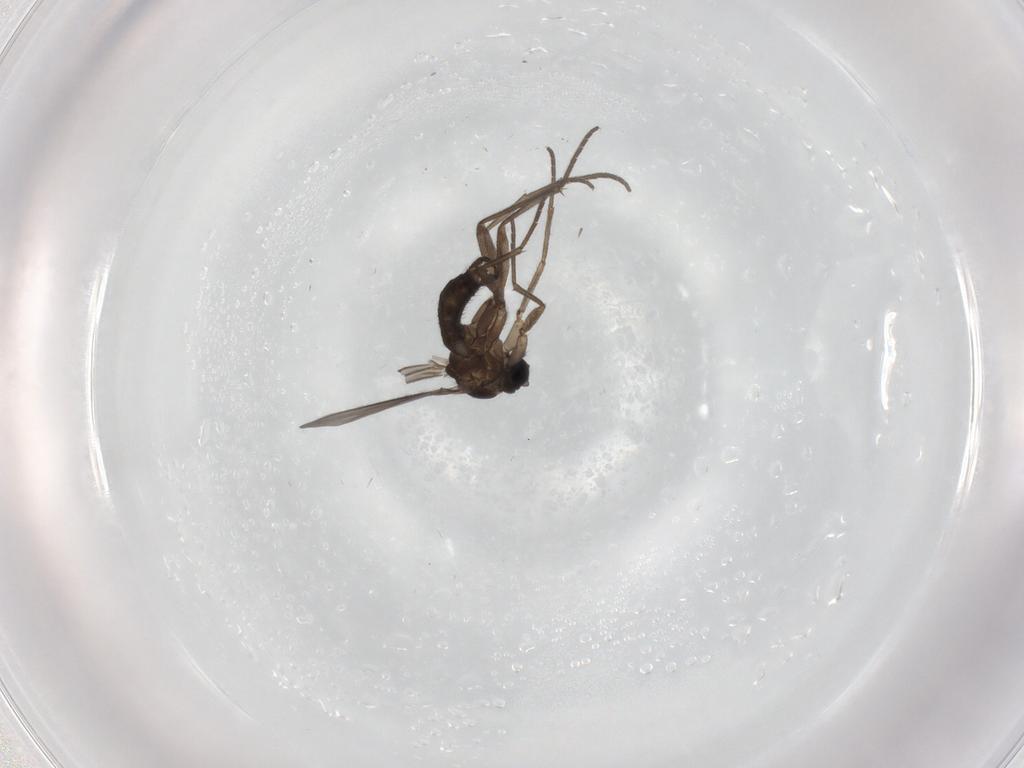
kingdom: Animalia
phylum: Arthropoda
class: Insecta
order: Diptera
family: Sciaridae
